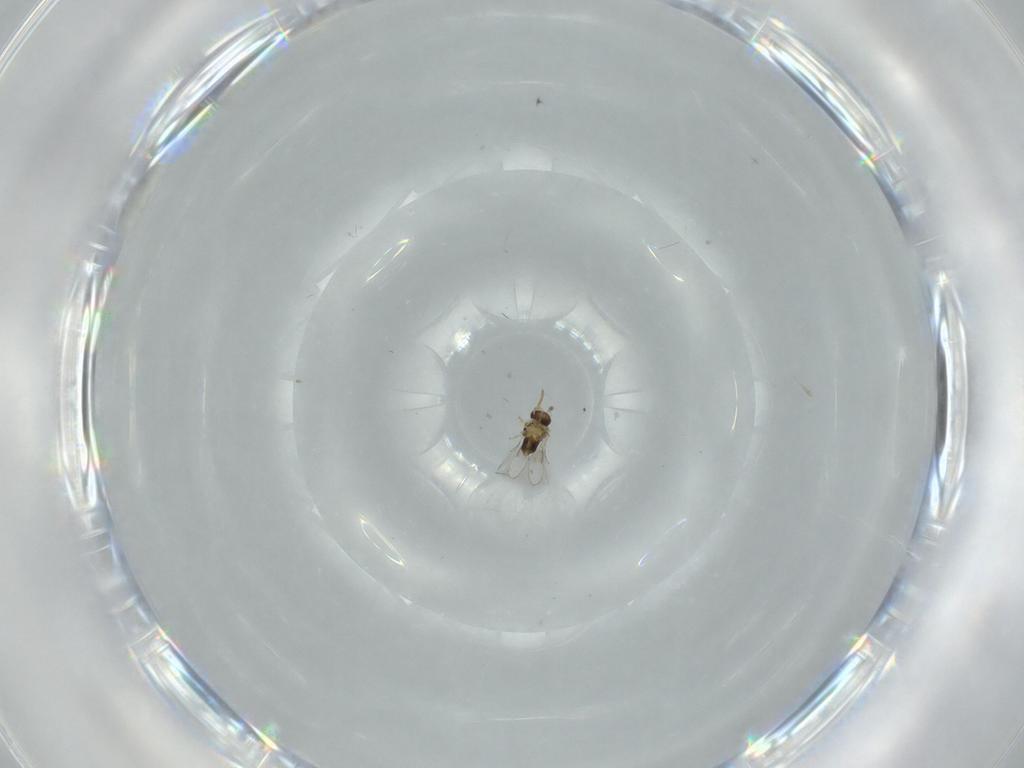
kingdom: Animalia
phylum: Arthropoda
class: Insecta
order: Hymenoptera
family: Aphelinidae
